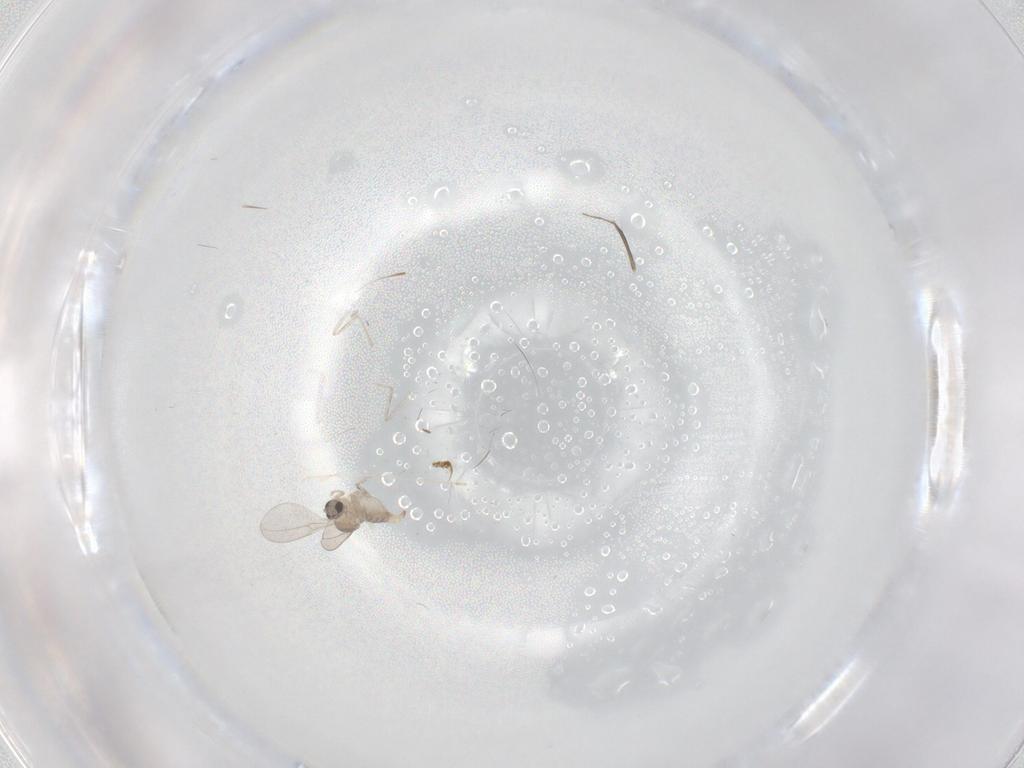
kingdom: Animalia
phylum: Arthropoda
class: Insecta
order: Diptera
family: Cecidomyiidae
